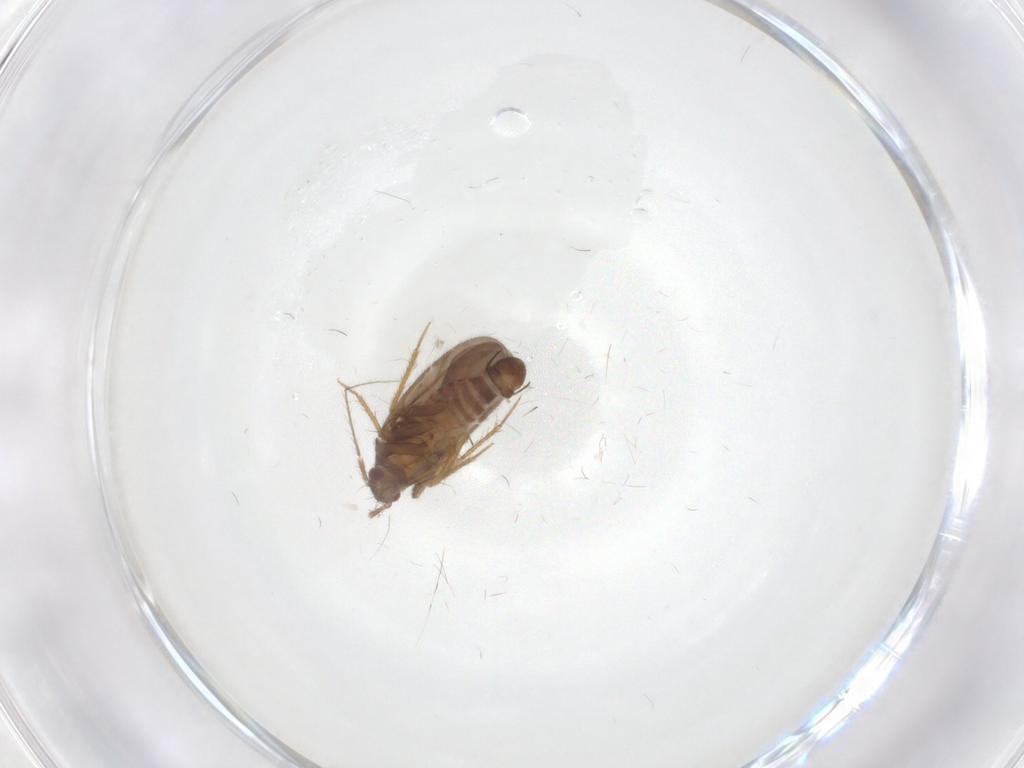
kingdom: Animalia
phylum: Arthropoda
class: Insecta
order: Hemiptera
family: Ceratocombidae
